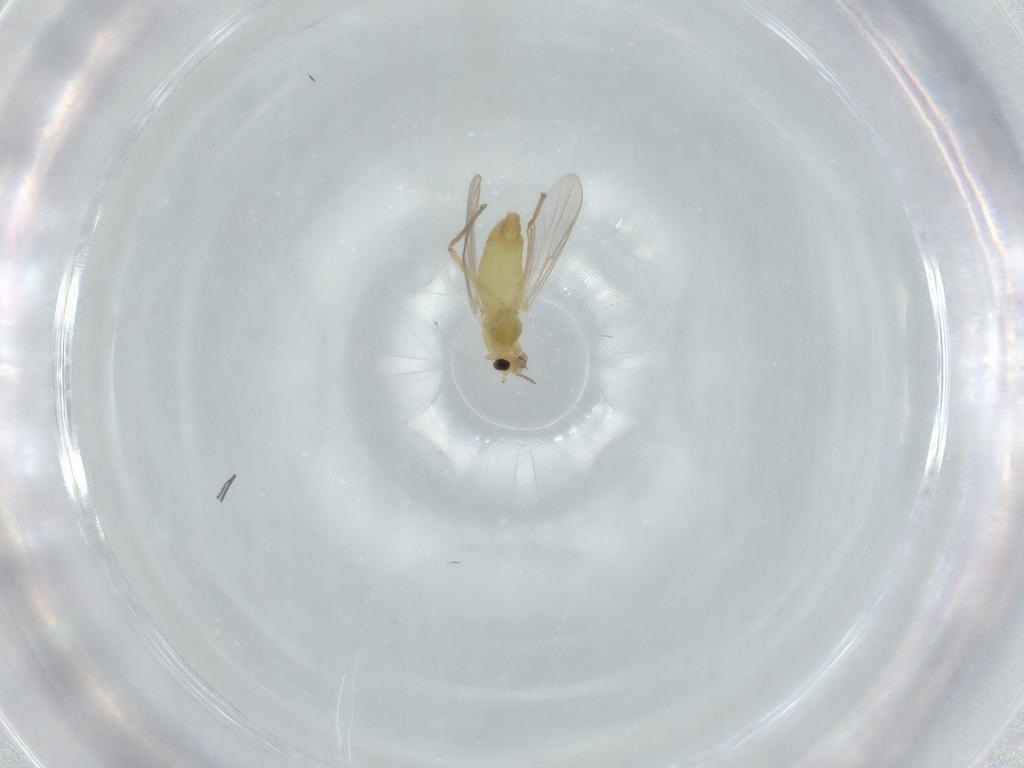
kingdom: Animalia
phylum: Arthropoda
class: Insecta
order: Diptera
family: Chironomidae
